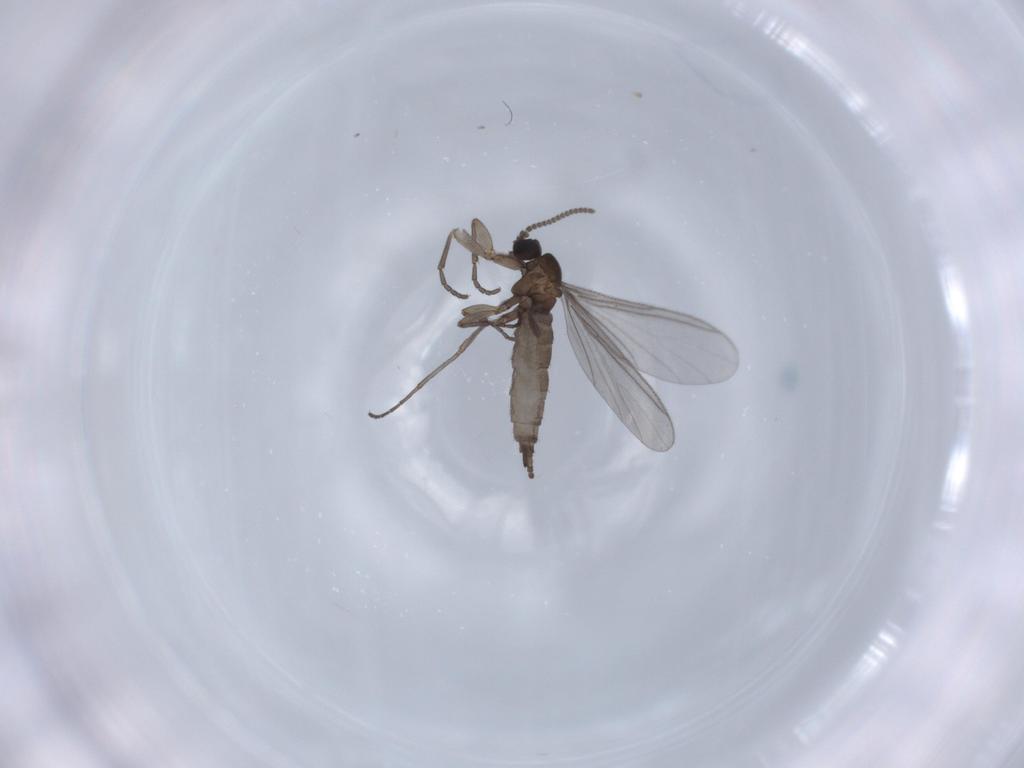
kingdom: Animalia
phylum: Arthropoda
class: Insecta
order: Diptera
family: Sciaridae
